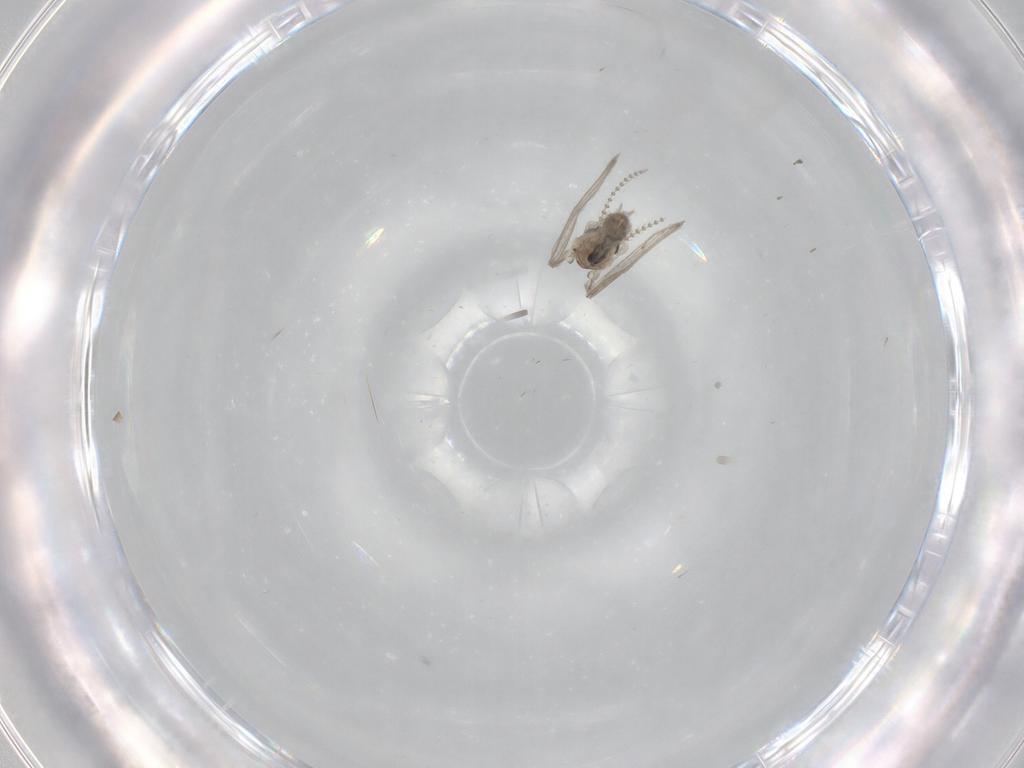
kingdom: Animalia
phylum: Arthropoda
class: Insecta
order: Diptera
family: Psychodidae
